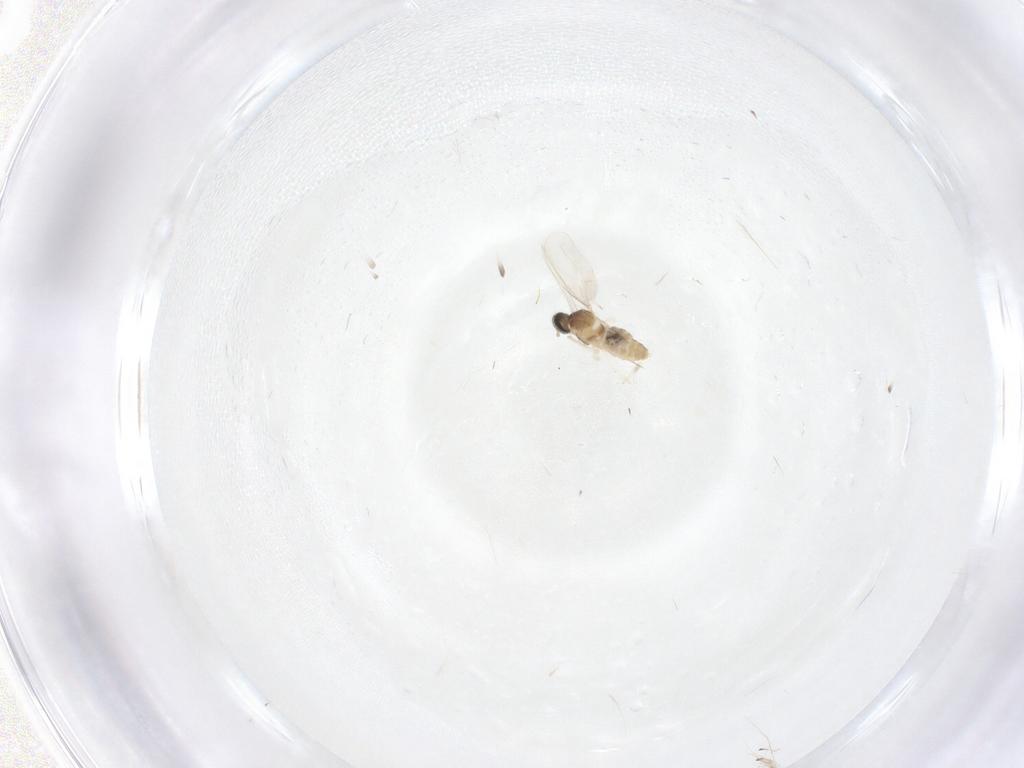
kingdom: Animalia
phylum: Arthropoda
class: Insecta
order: Diptera
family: Cecidomyiidae
